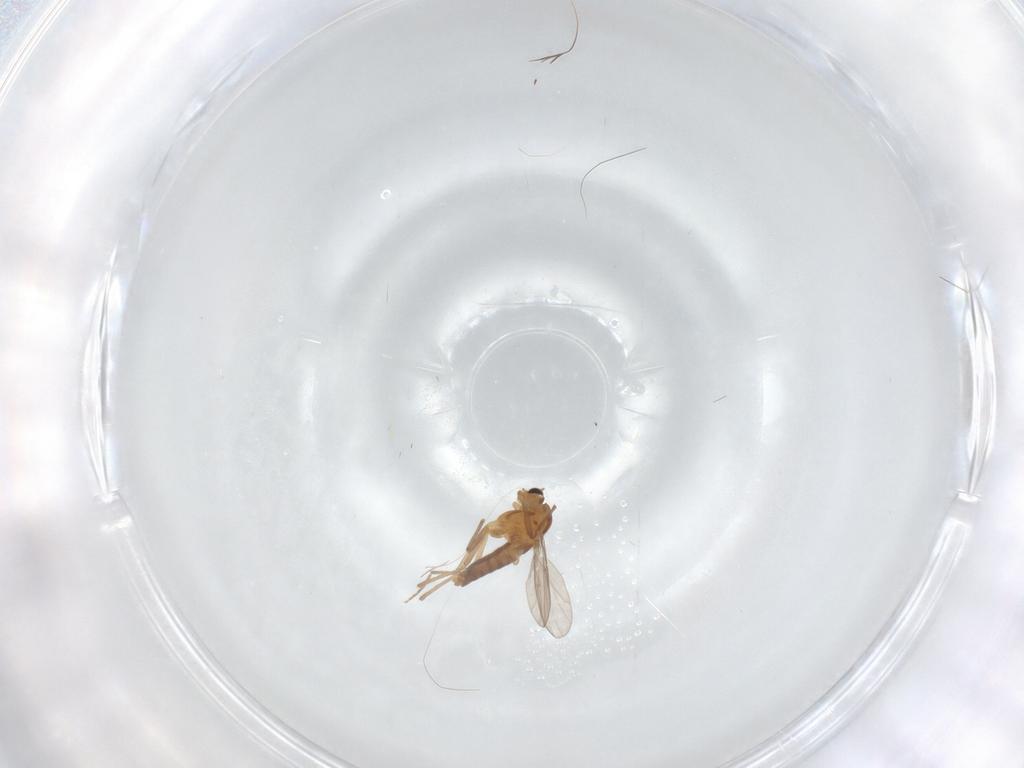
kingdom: Animalia
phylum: Arthropoda
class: Insecta
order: Diptera
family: Chironomidae
